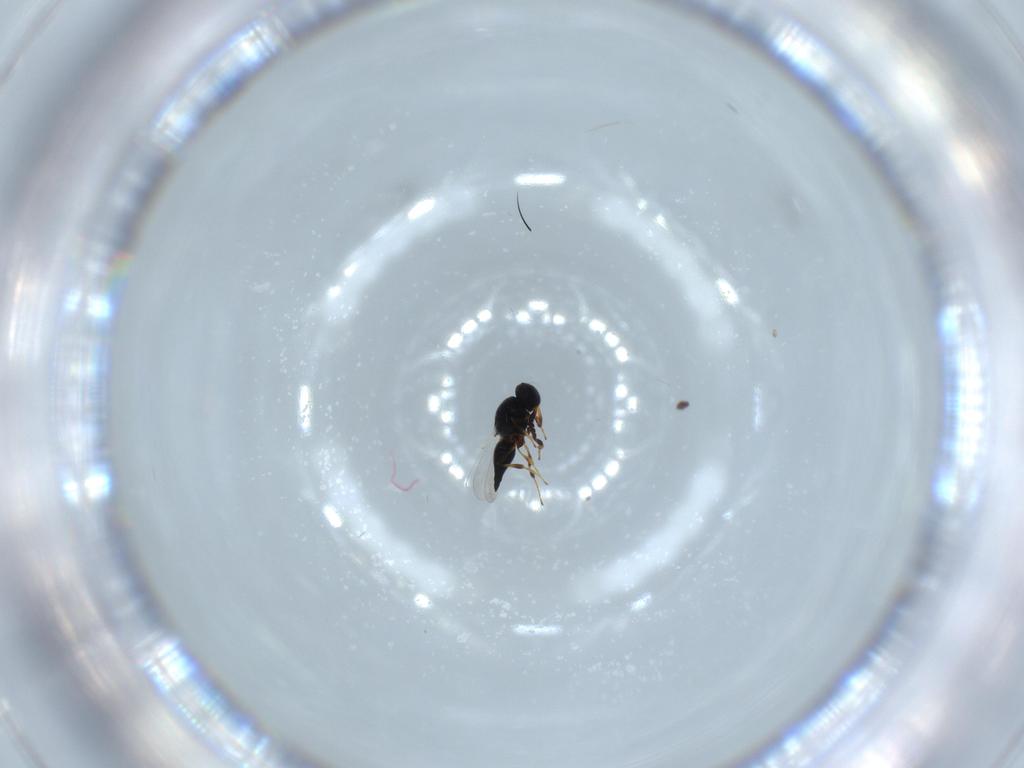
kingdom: Animalia
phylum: Arthropoda
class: Insecta
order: Hymenoptera
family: Platygastridae
